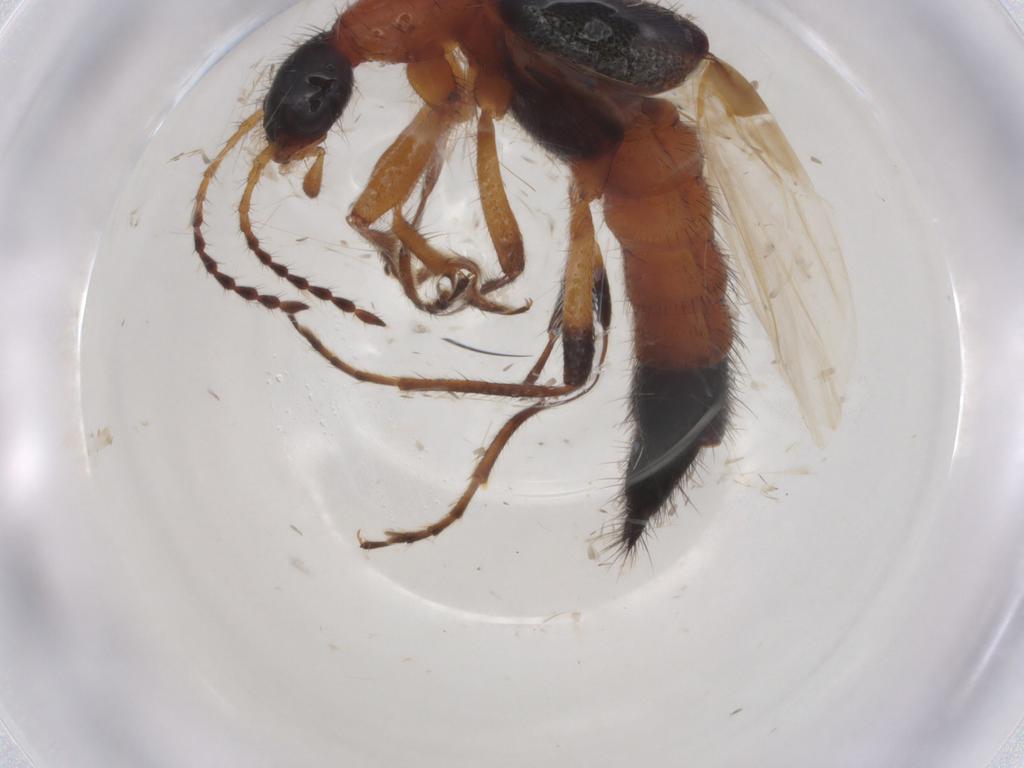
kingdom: Animalia
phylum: Arthropoda
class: Insecta
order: Coleoptera
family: Staphylinidae
